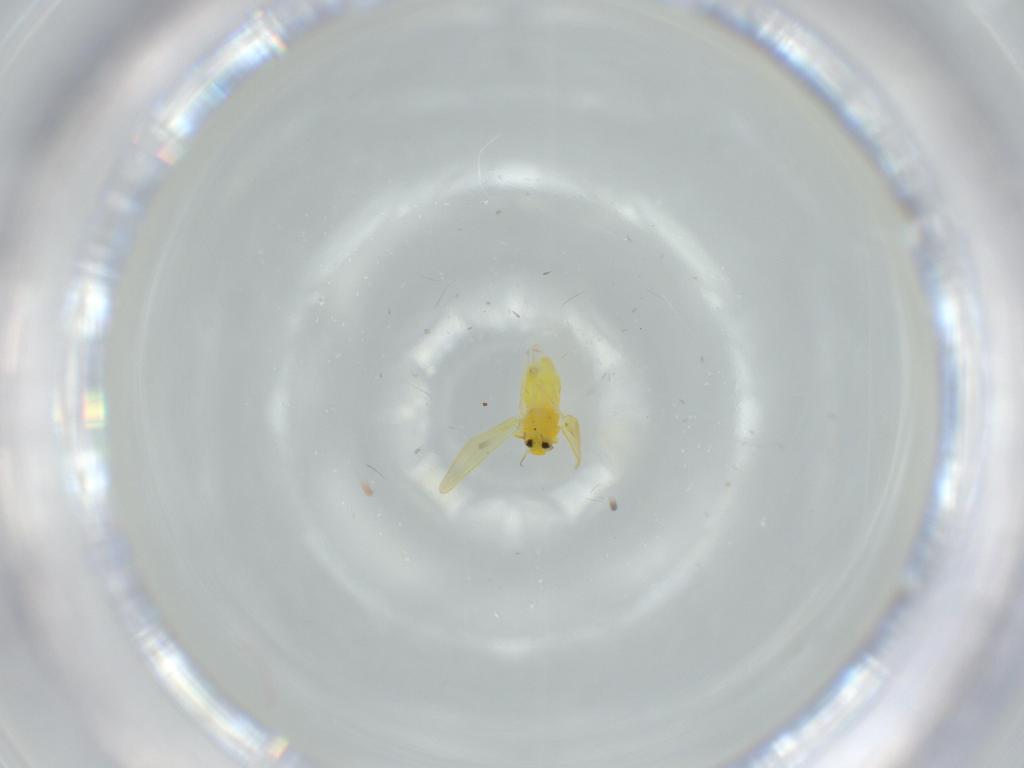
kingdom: Animalia
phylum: Arthropoda
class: Insecta
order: Hemiptera
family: Aleyrodidae
